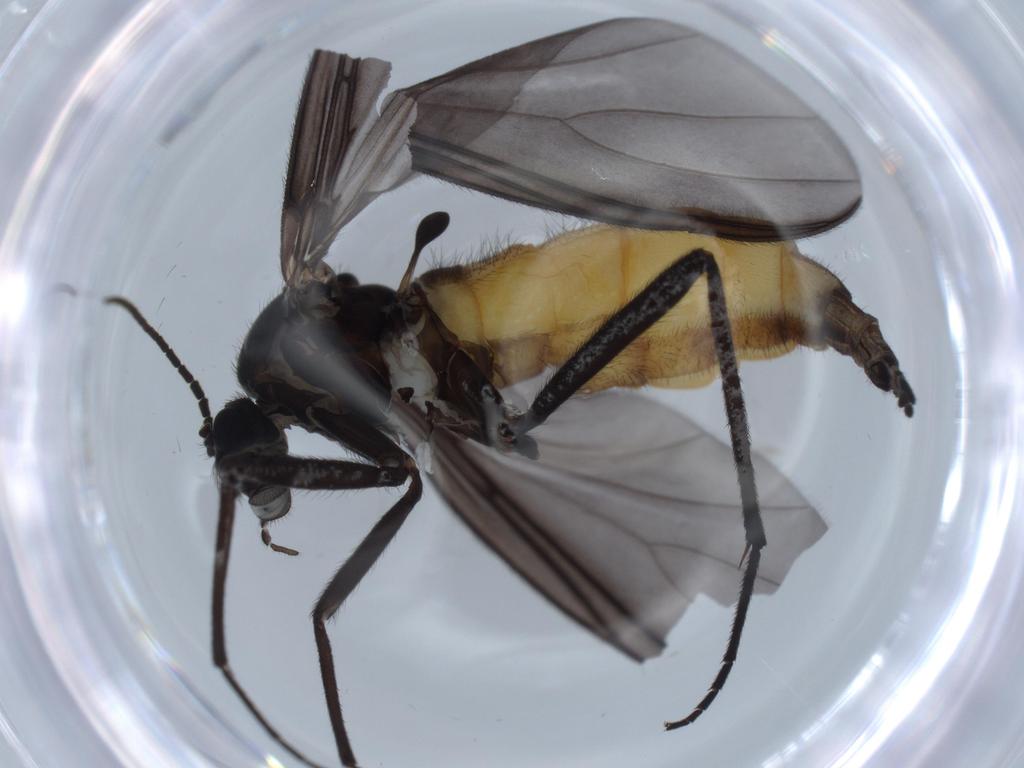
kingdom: Animalia
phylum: Arthropoda
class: Insecta
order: Diptera
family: Ceratopogonidae
